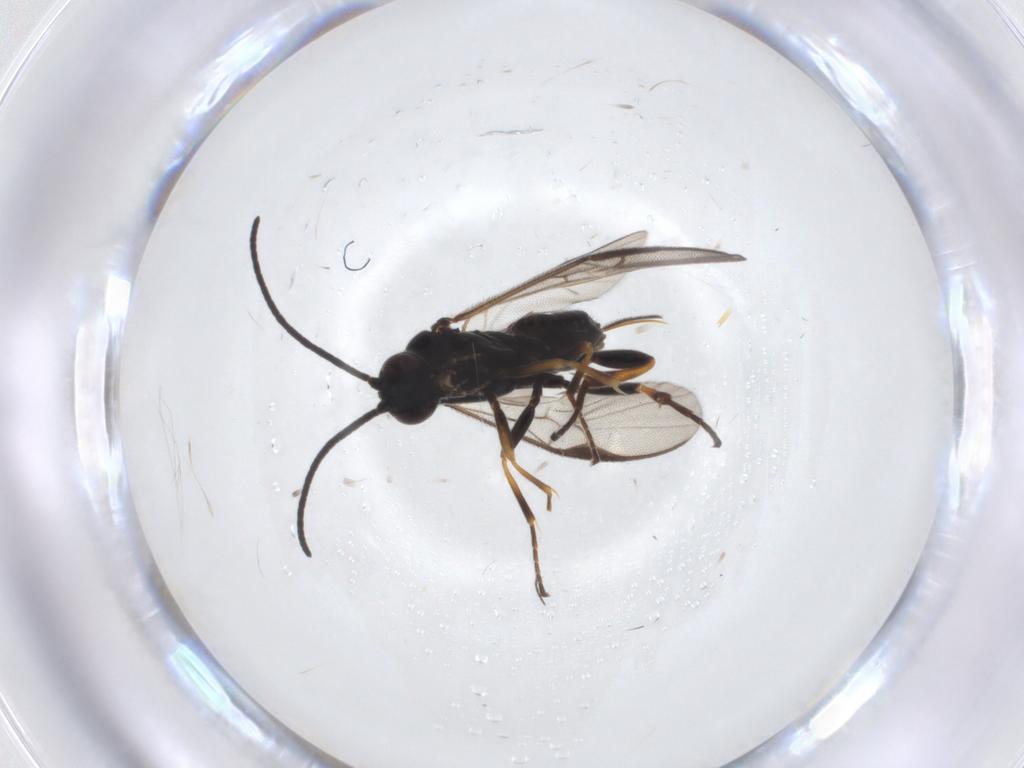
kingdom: Animalia
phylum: Arthropoda
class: Insecta
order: Hymenoptera
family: Braconidae
